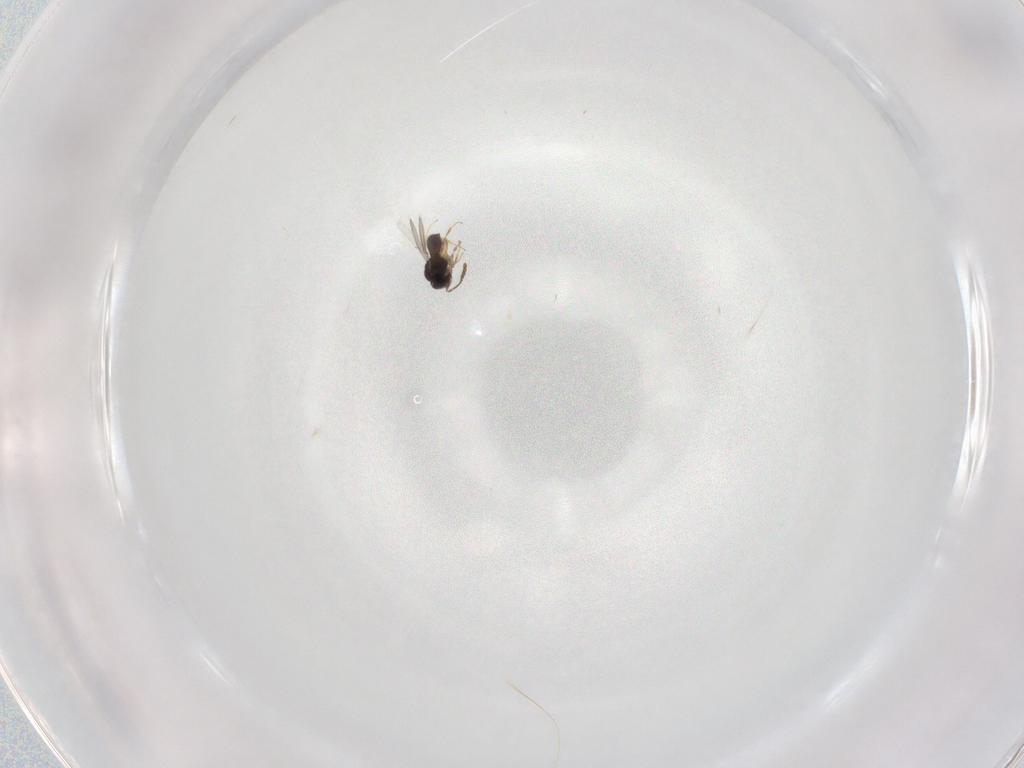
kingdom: Animalia
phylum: Arthropoda
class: Insecta
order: Hymenoptera
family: Scelionidae
